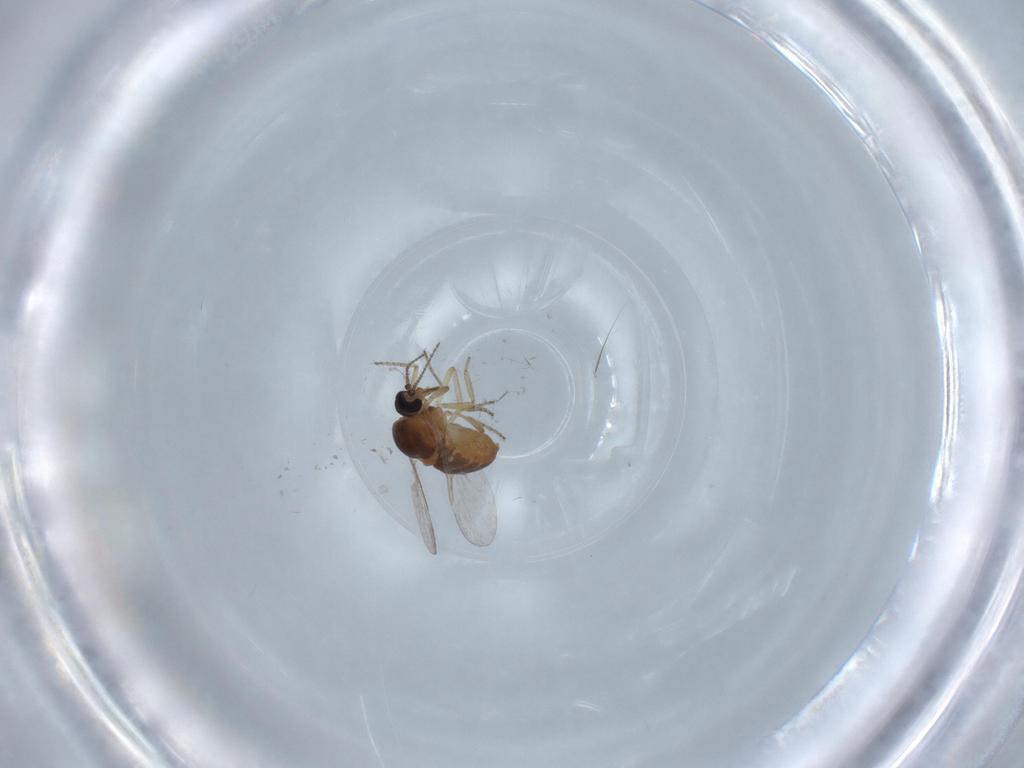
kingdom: Animalia
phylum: Arthropoda
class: Insecta
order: Diptera
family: Ceratopogonidae
